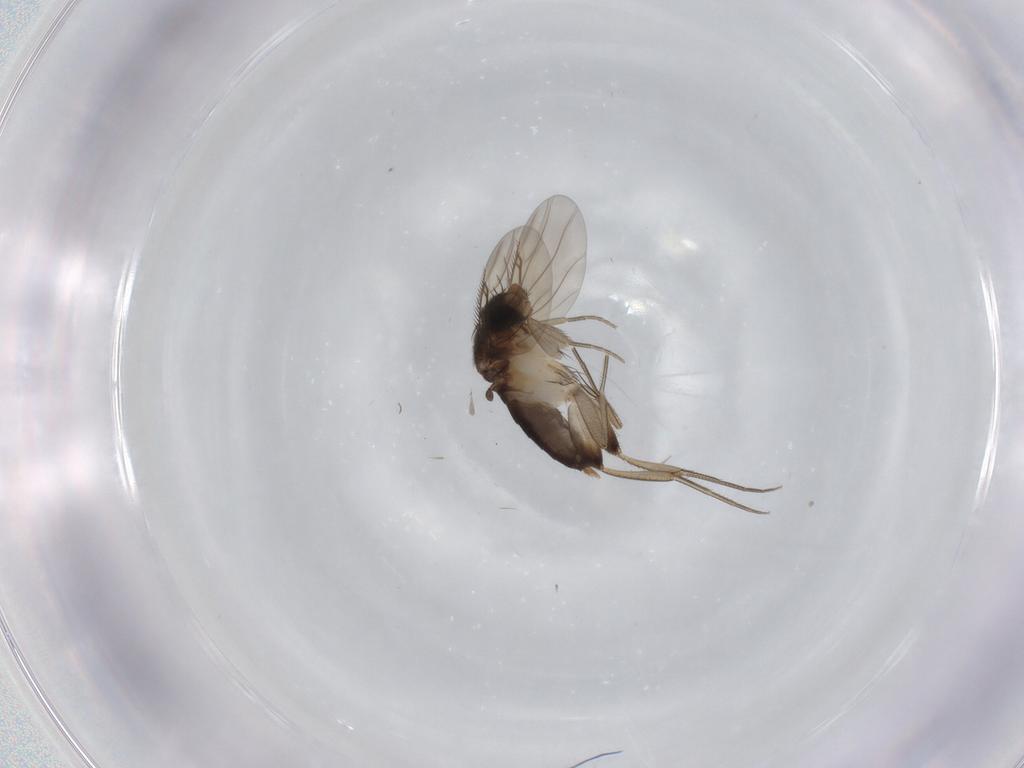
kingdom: Animalia
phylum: Arthropoda
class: Insecta
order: Diptera
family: Phoridae
